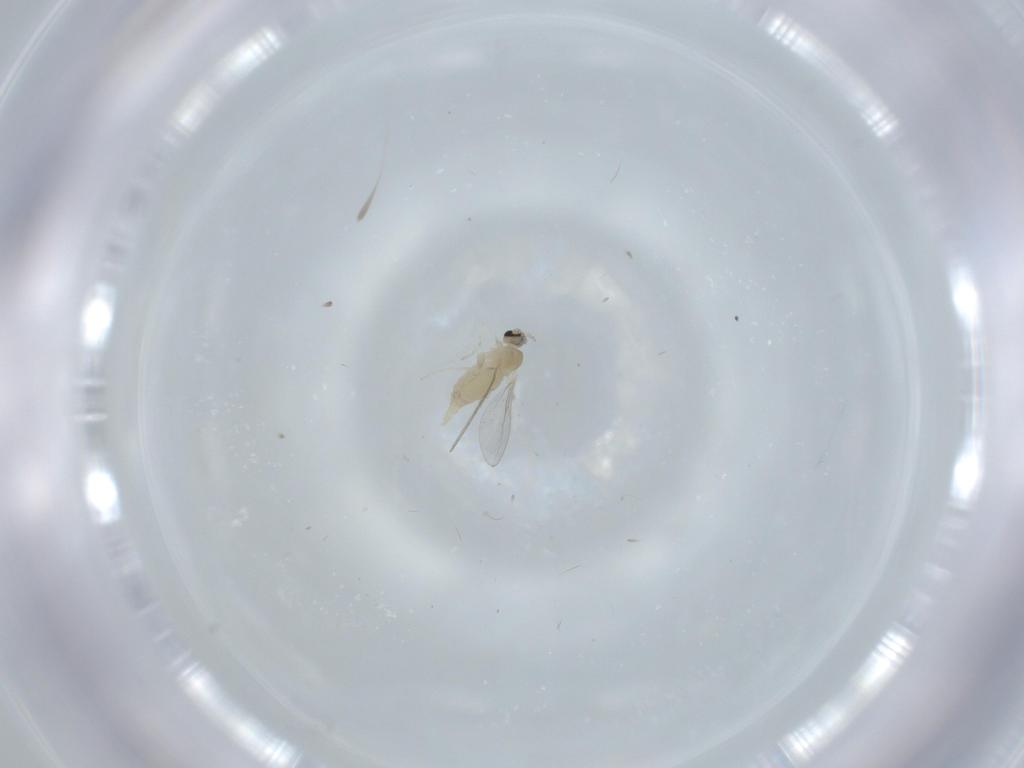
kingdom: Animalia
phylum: Arthropoda
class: Insecta
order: Diptera
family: Cecidomyiidae
